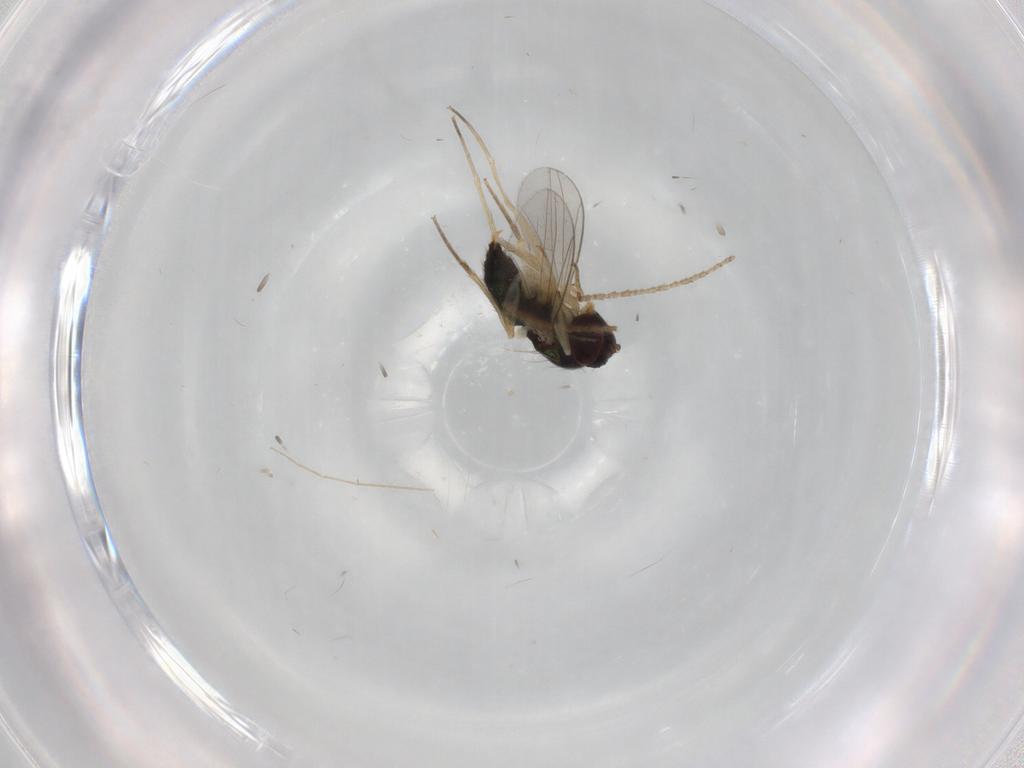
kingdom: Animalia
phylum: Arthropoda
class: Insecta
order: Diptera
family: Dolichopodidae
